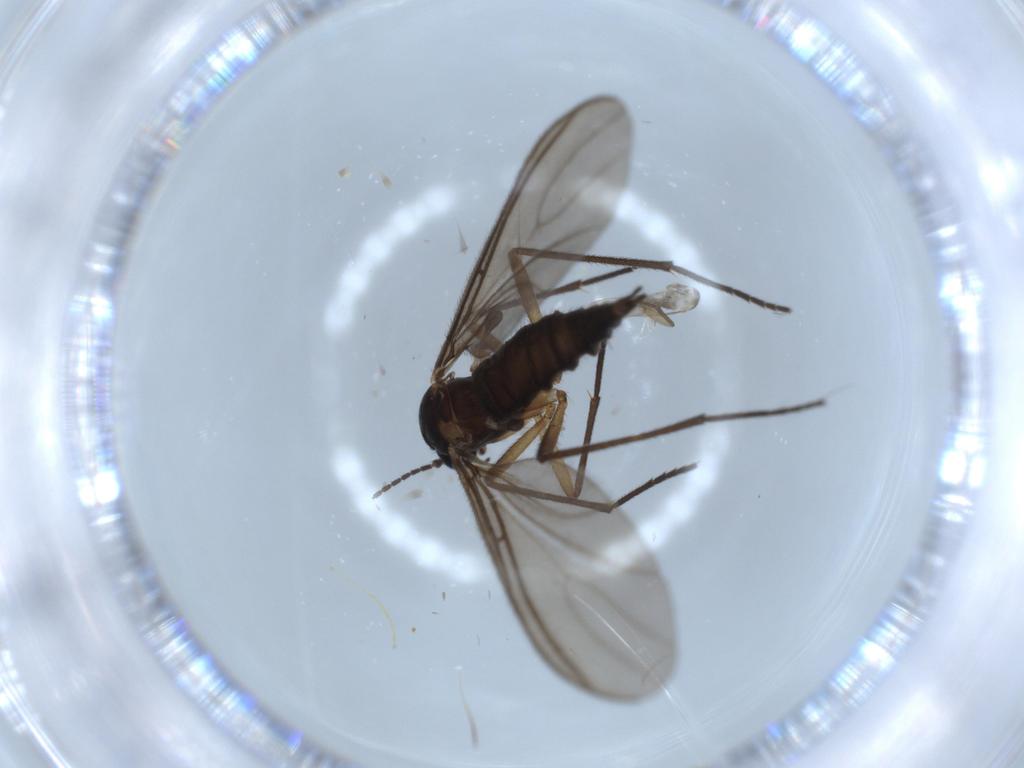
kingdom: Animalia
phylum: Arthropoda
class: Insecta
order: Diptera
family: Sciaridae
